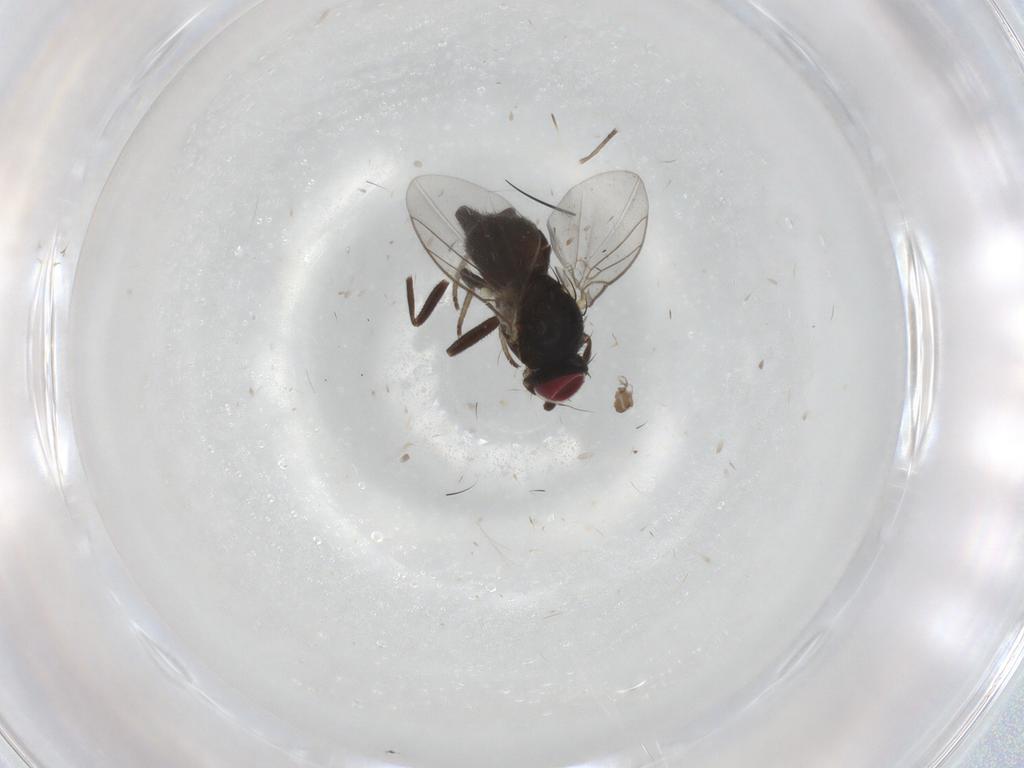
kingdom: Animalia
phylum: Arthropoda
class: Insecta
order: Diptera
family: Agromyzidae
